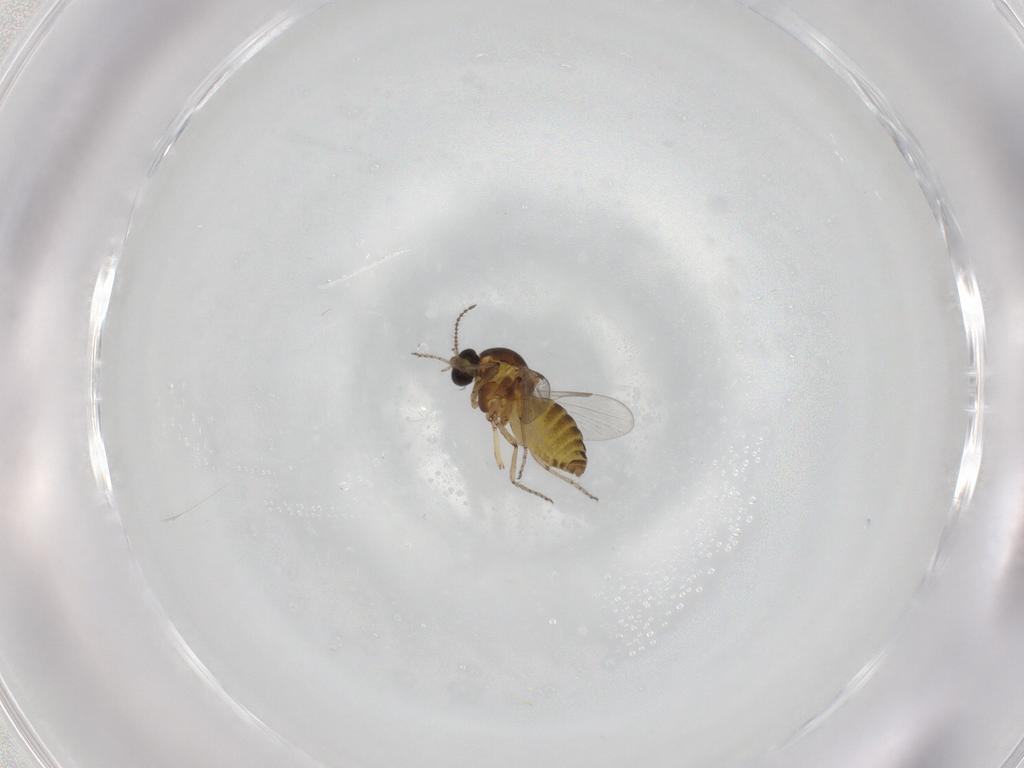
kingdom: Animalia
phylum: Arthropoda
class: Insecta
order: Diptera
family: Ceratopogonidae
